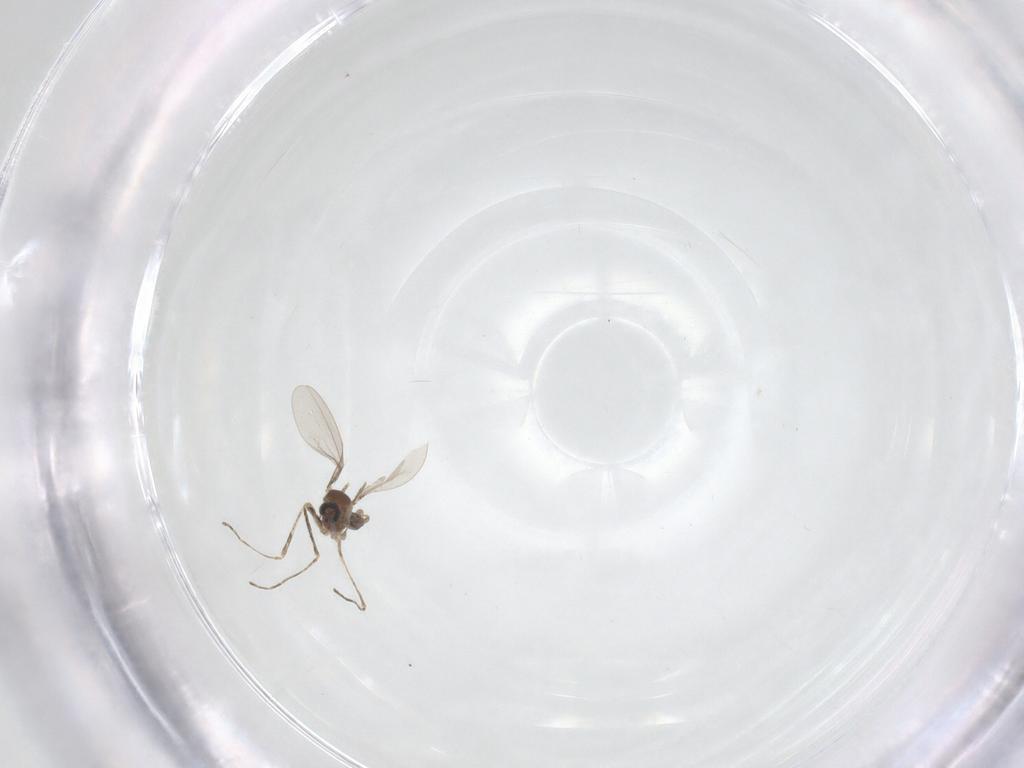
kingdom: Animalia
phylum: Arthropoda
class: Insecta
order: Diptera
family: Sciaridae
